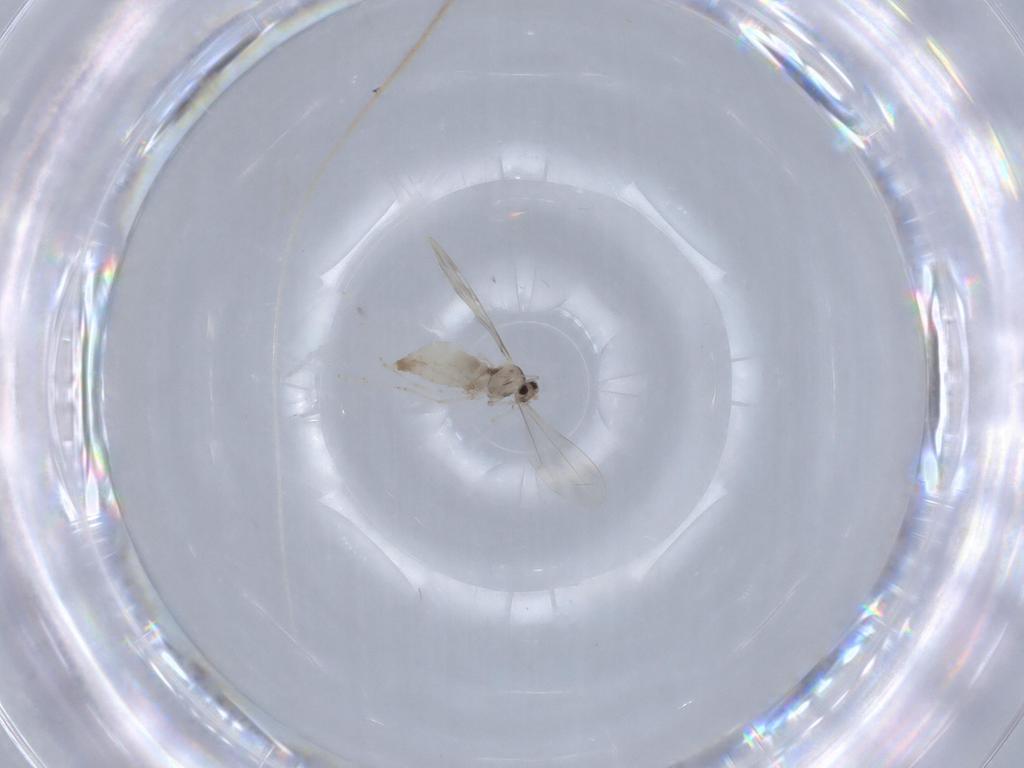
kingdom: Animalia
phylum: Arthropoda
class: Insecta
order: Diptera
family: Cecidomyiidae
